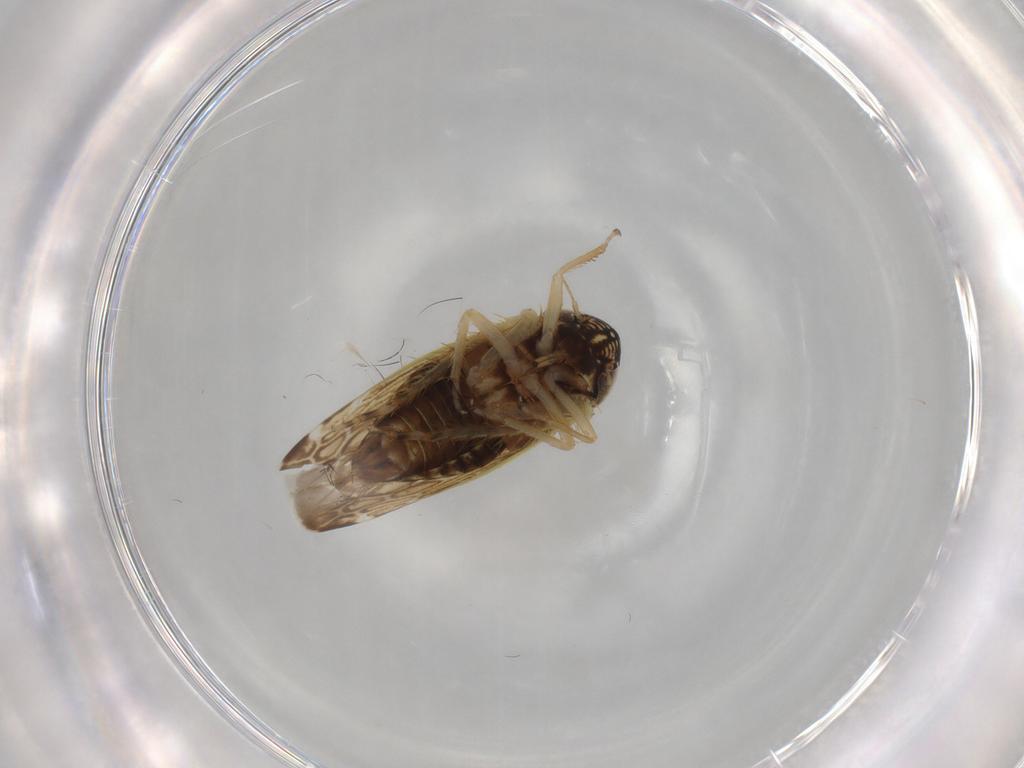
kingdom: Animalia
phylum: Arthropoda
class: Insecta
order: Hemiptera
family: Cicadellidae
